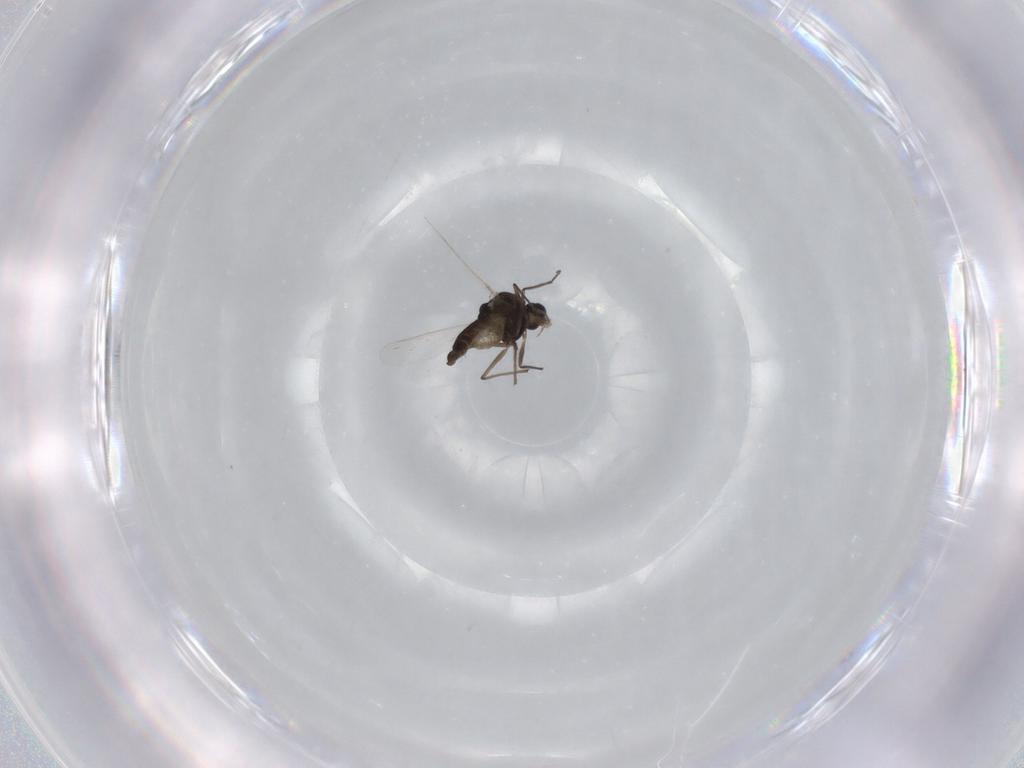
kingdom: Animalia
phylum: Arthropoda
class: Insecta
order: Diptera
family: Chironomidae
